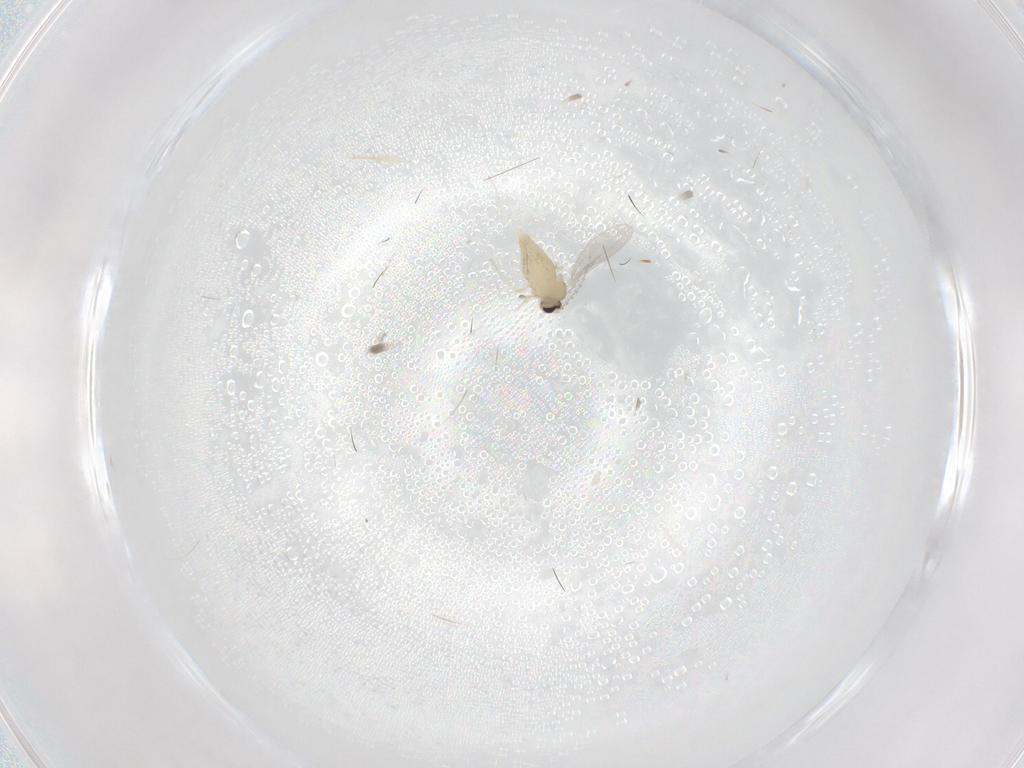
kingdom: Animalia
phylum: Arthropoda
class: Insecta
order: Diptera
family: Cecidomyiidae
